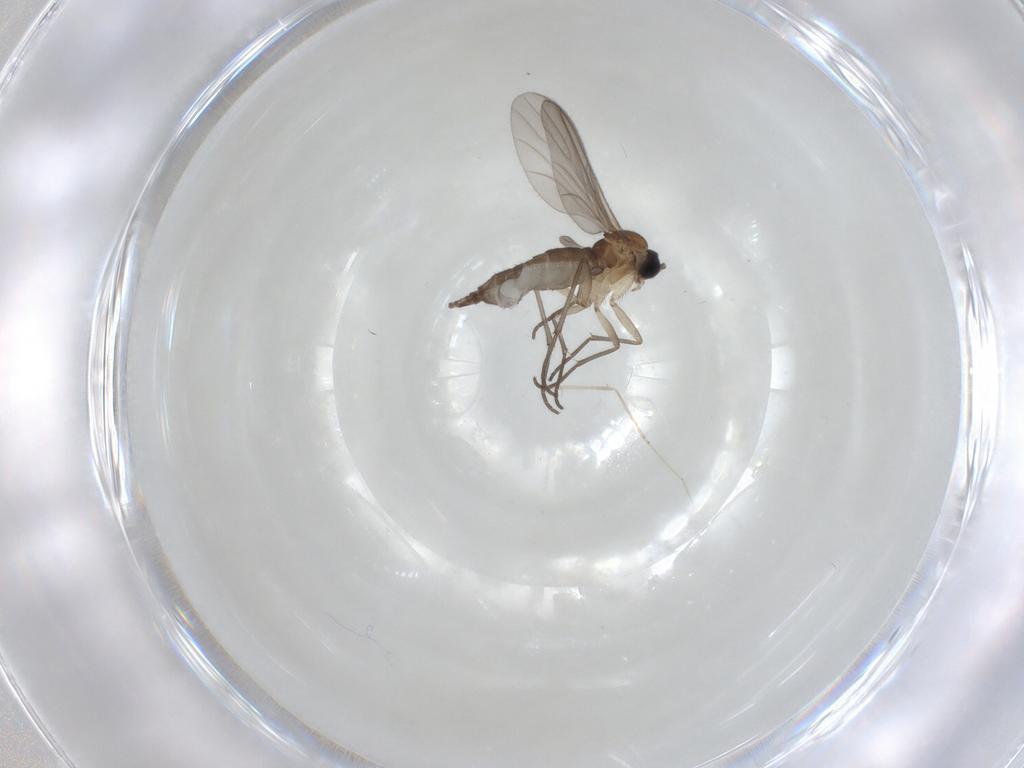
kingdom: Animalia
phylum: Arthropoda
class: Insecta
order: Diptera
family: Cecidomyiidae
